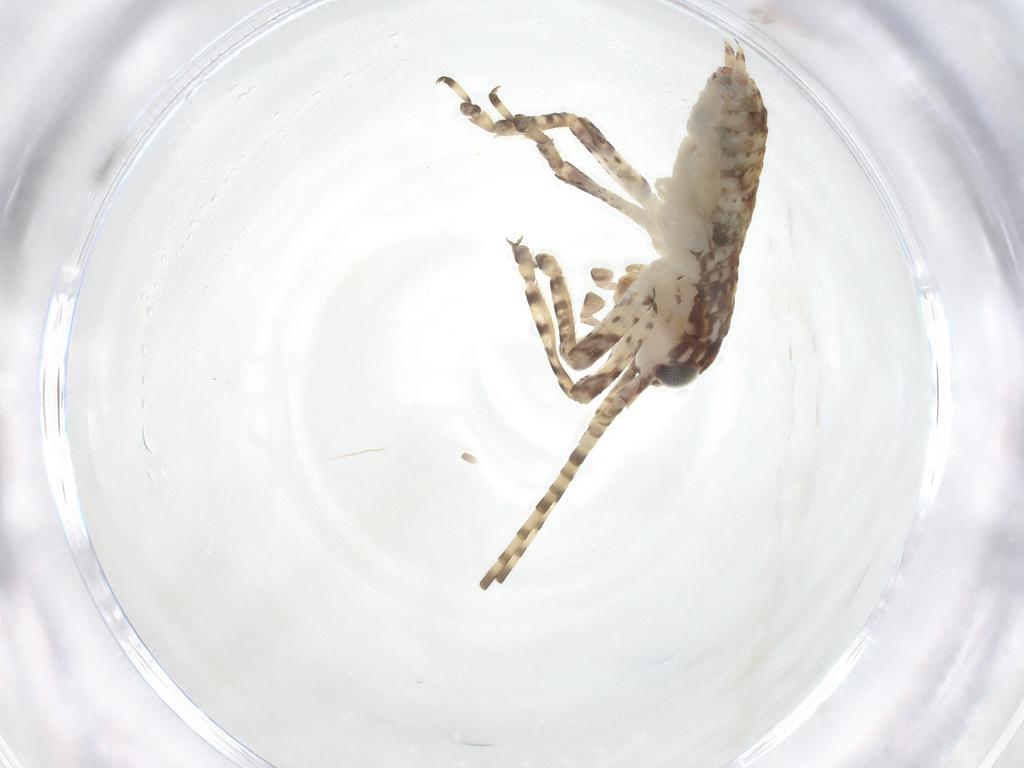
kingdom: Animalia
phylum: Arthropoda
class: Insecta
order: Orthoptera
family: Gryllidae
